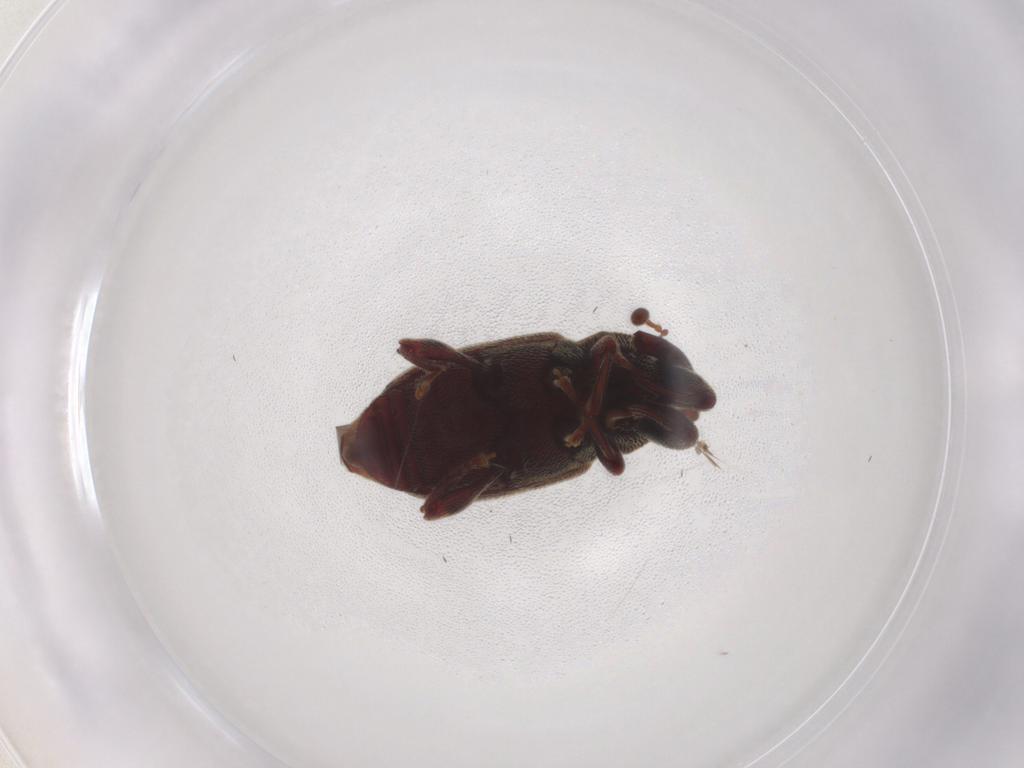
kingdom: Animalia
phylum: Arthropoda
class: Insecta
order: Coleoptera
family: Curculionidae
